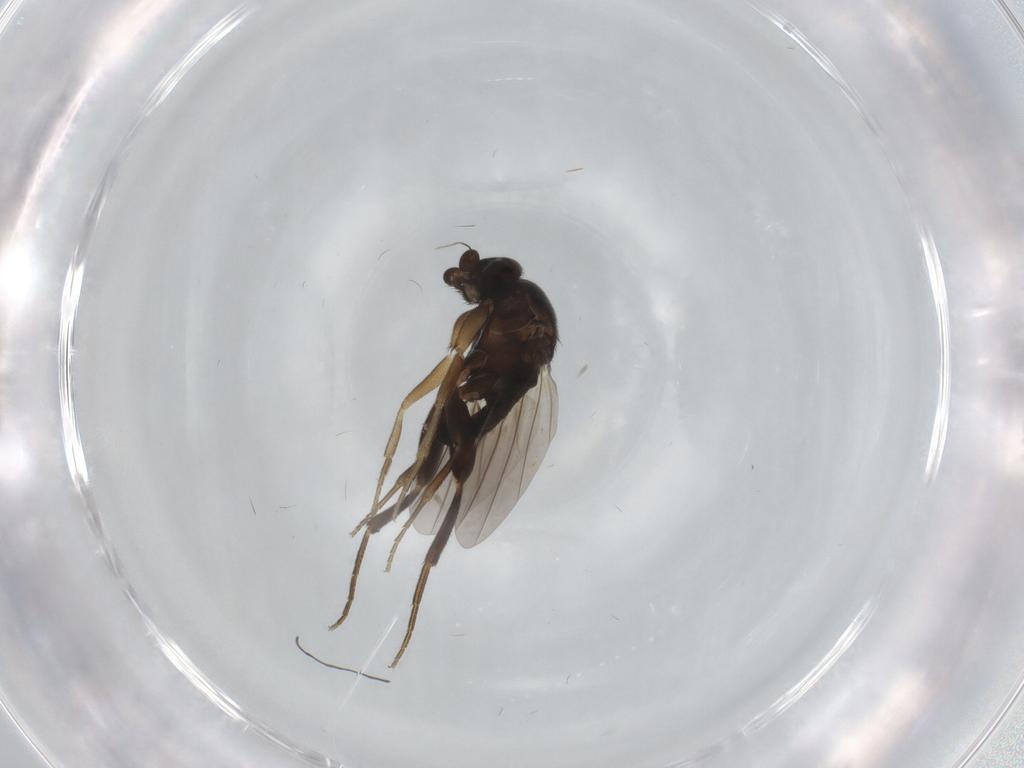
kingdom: Animalia
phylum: Arthropoda
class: Insecta
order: Diptera
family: Phoridae
